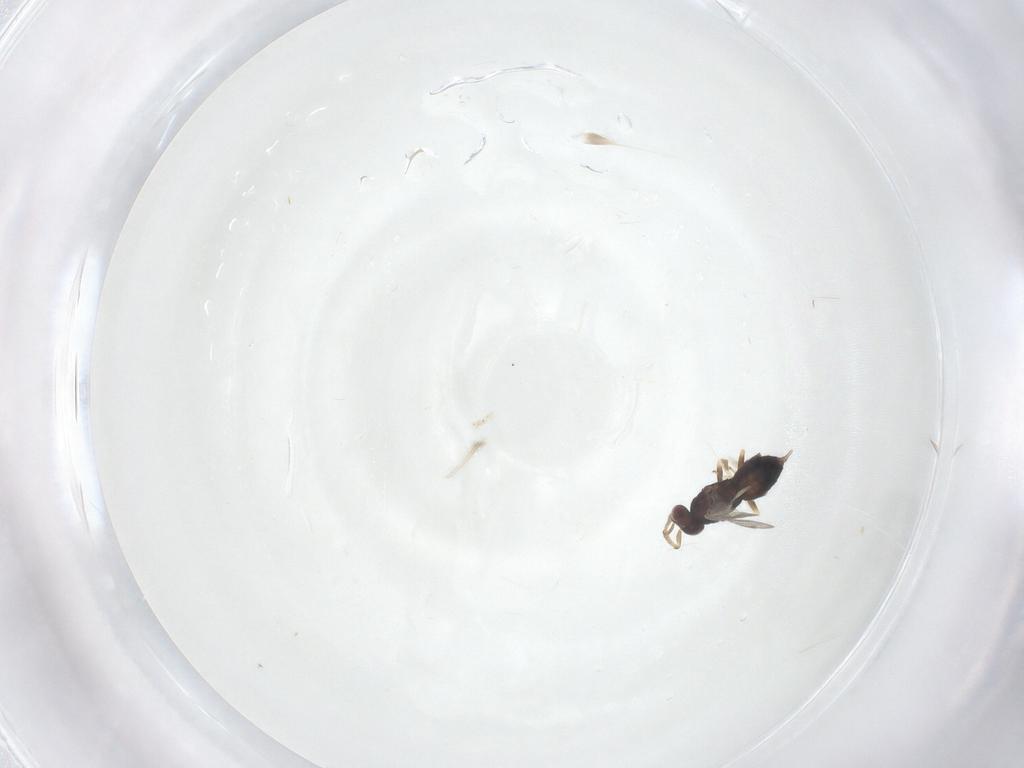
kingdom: Animalia
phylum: Arthropoda
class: Insecta
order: Hymenoptera
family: Eulophidae
